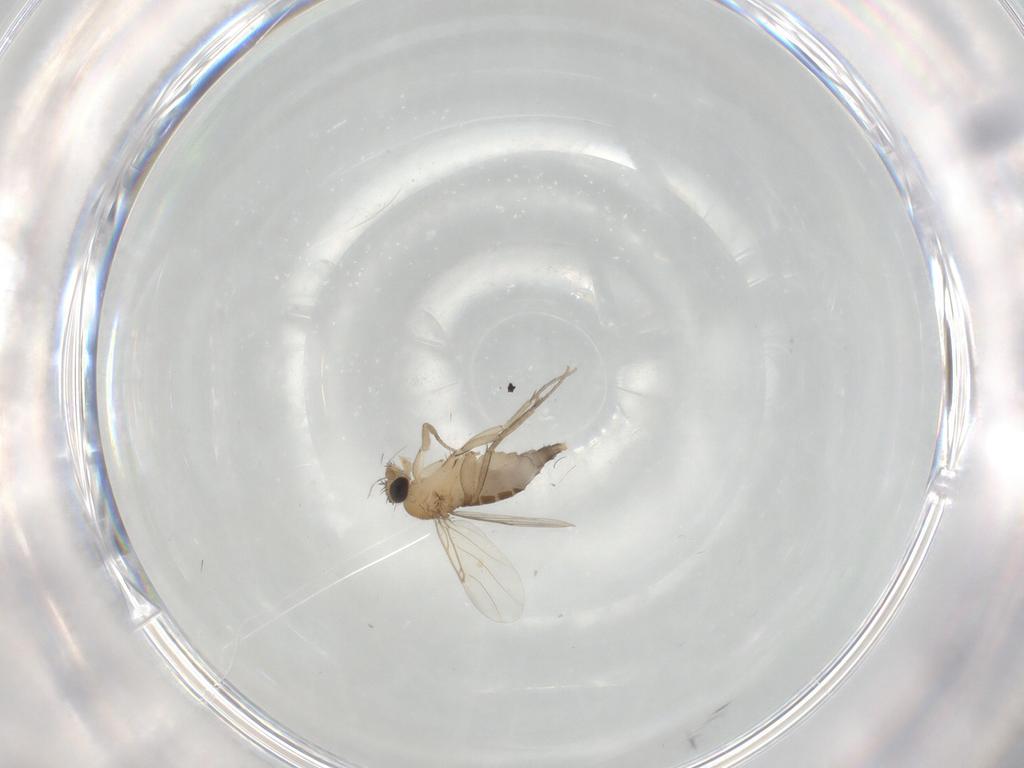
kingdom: Animalia
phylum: Arthropoda
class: Insecta
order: Diptera
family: Phoridae
